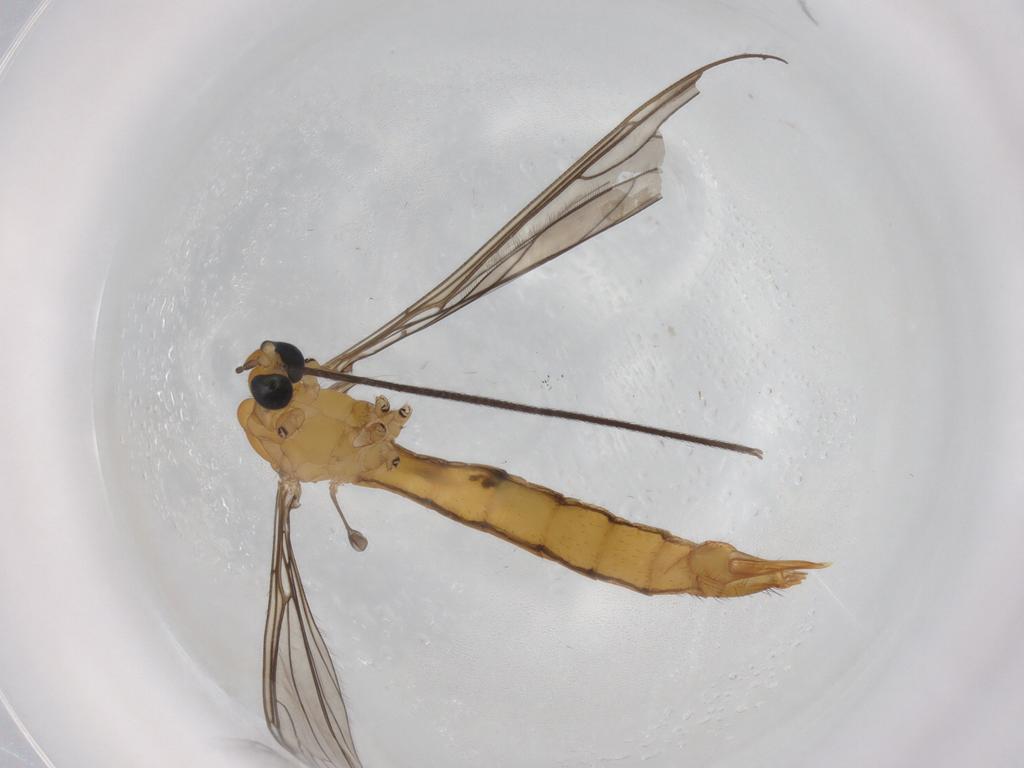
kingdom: Animalia
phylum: Arthropoda
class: Insecta
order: Diptera
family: Limoniidae
